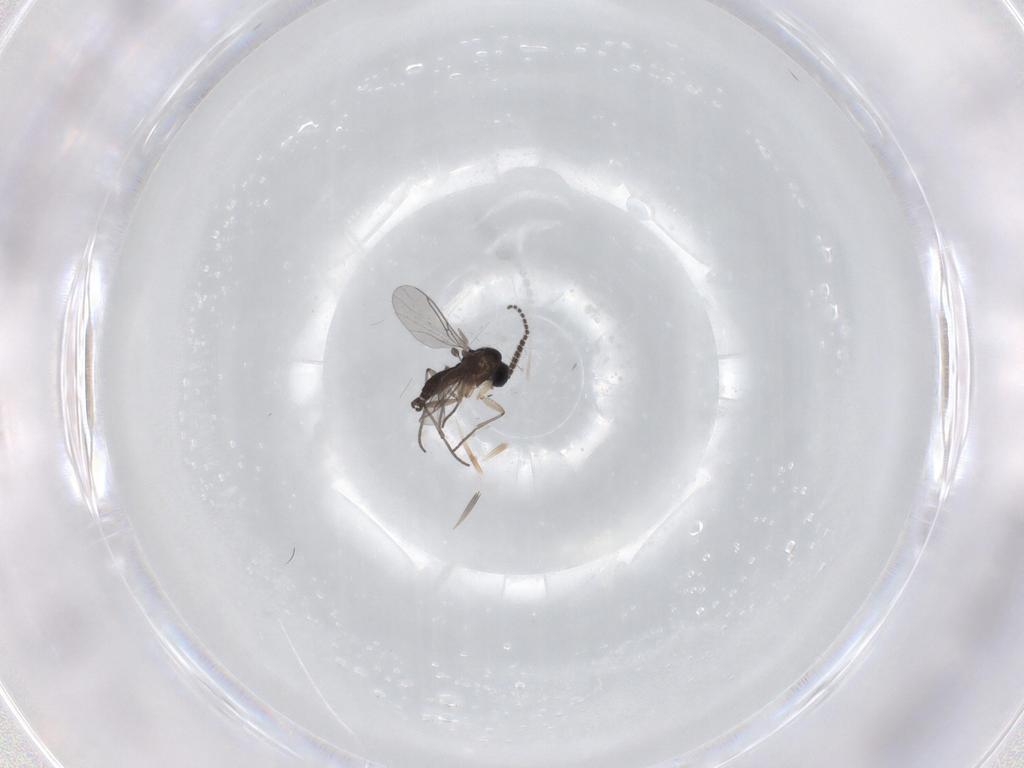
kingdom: Animalia
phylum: Arthropoda
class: Insecta
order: Diptera
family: Sciaridae
